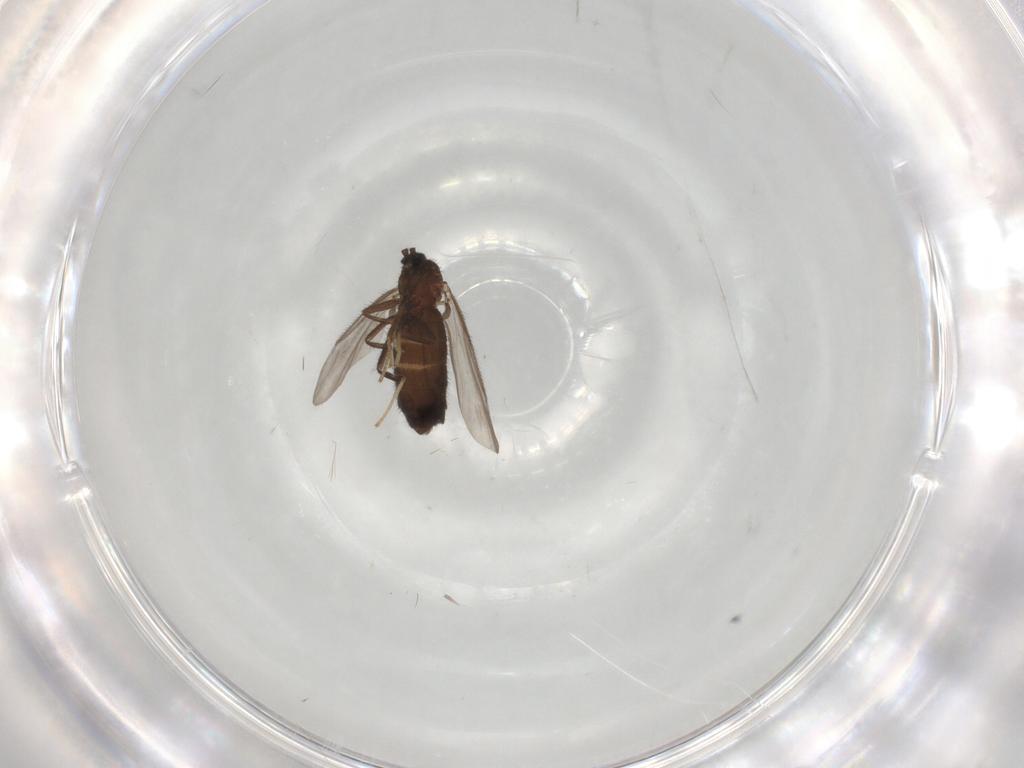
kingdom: Animalia
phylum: Arthropoda
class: Insecta
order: Diptera
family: Scatopsidae
